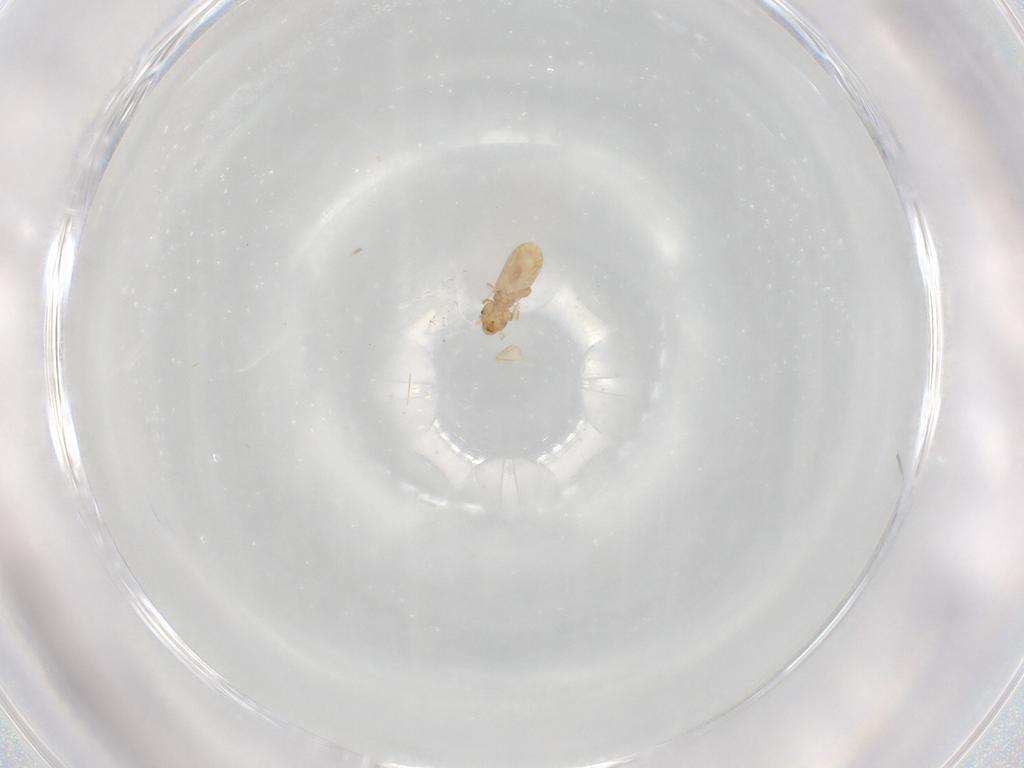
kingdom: Animalia
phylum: Arthropoda
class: Insecta
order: Psocodea
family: Liposcelididae
